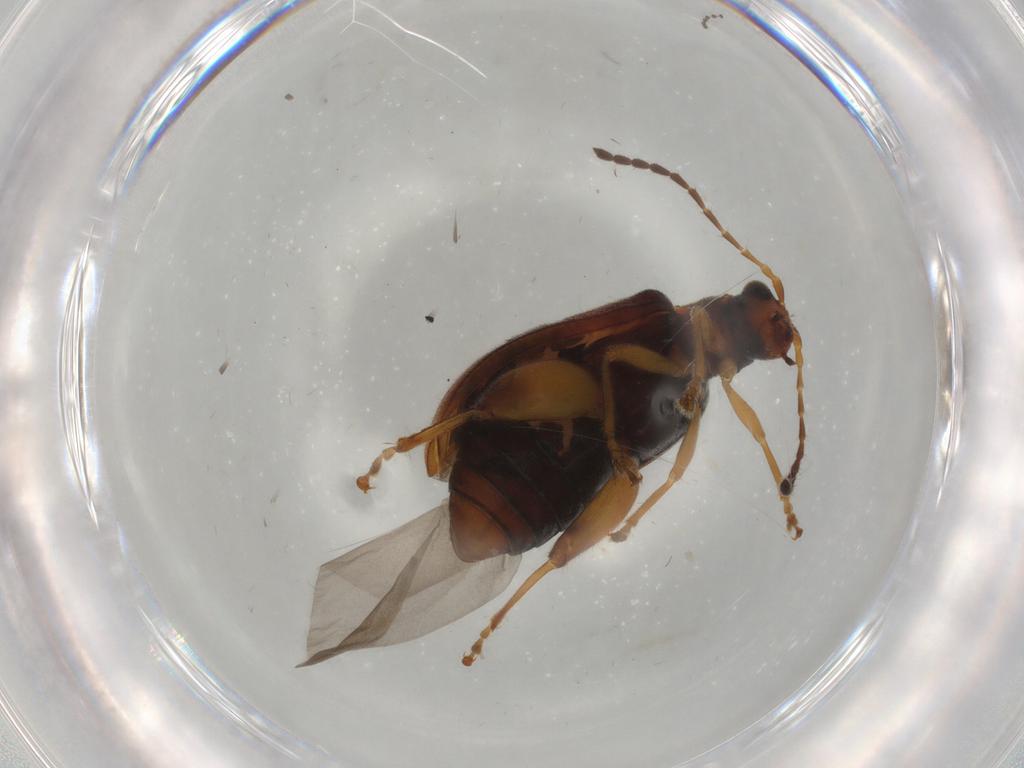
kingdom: Animalia
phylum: Arthropoda
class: Insecta
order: Coleoptera
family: Chrysomelidae
